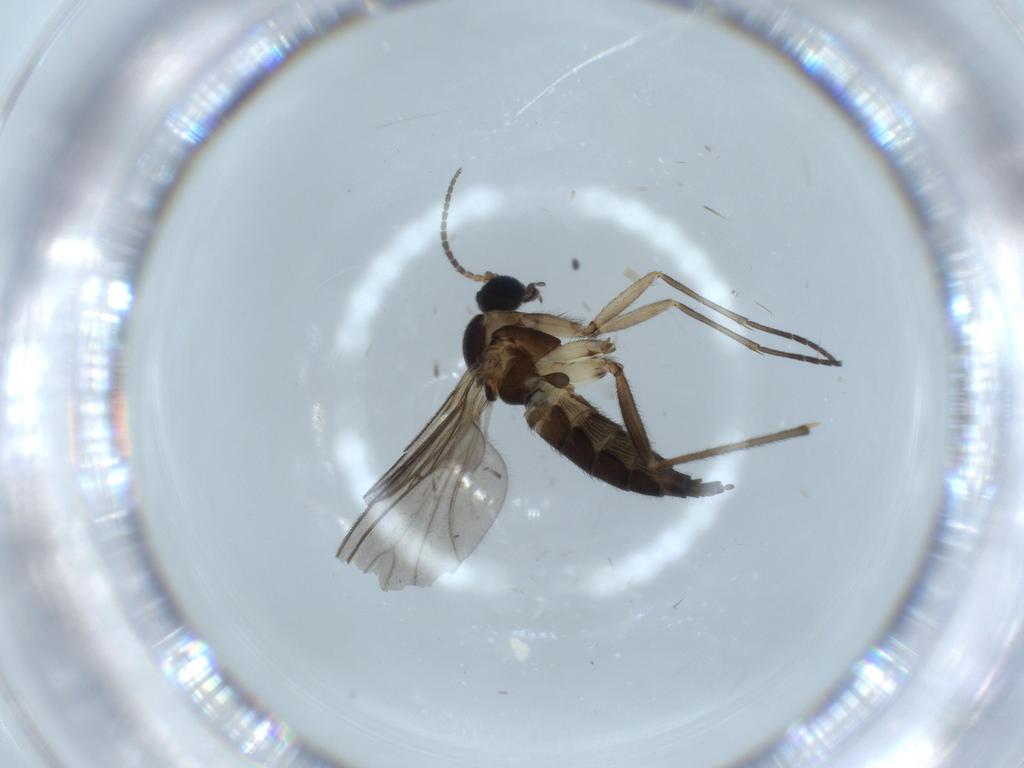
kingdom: Animalia
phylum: Arthropoda
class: Insecta
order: Diptera
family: Sciaridae
